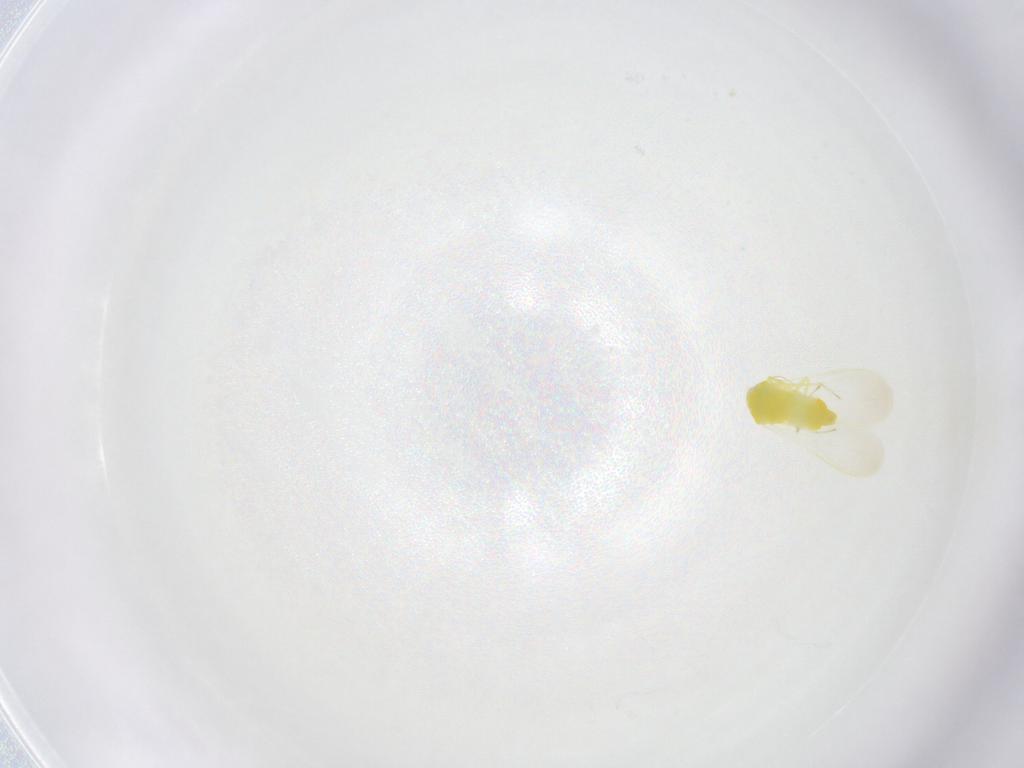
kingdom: Animalia
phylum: Arthropoda
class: Insecta
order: Hemiptera
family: Aleyrodidae
